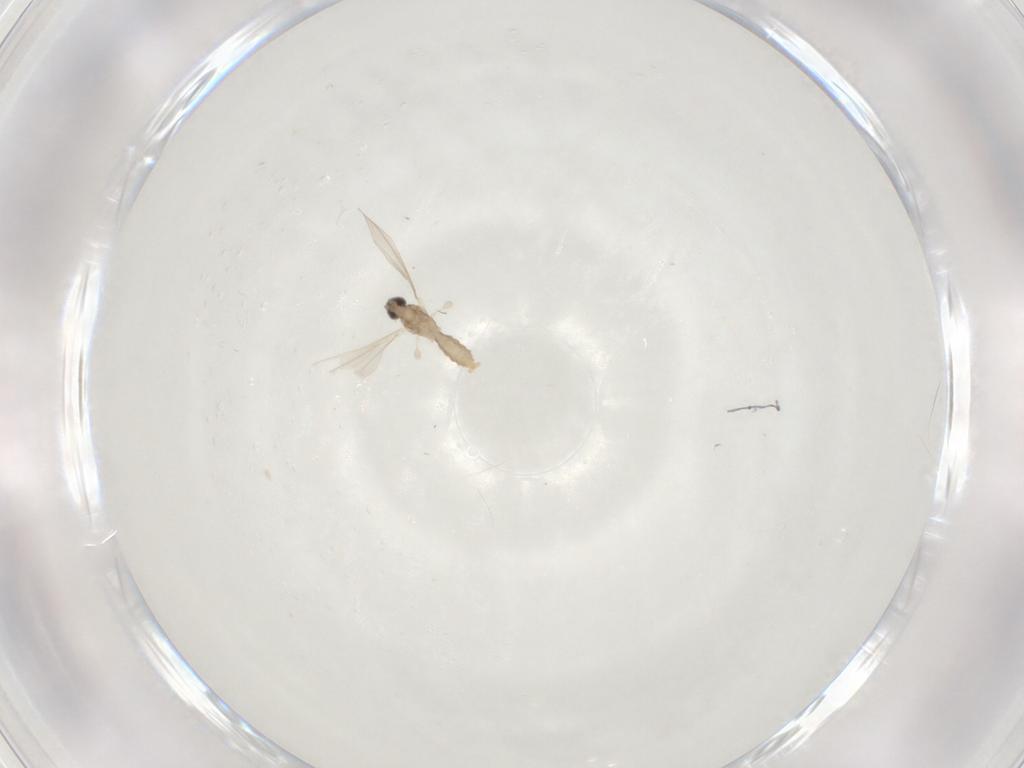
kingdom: Animalia
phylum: Arthropoda
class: Insecta
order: Diptera
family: Cecidomyiidae
